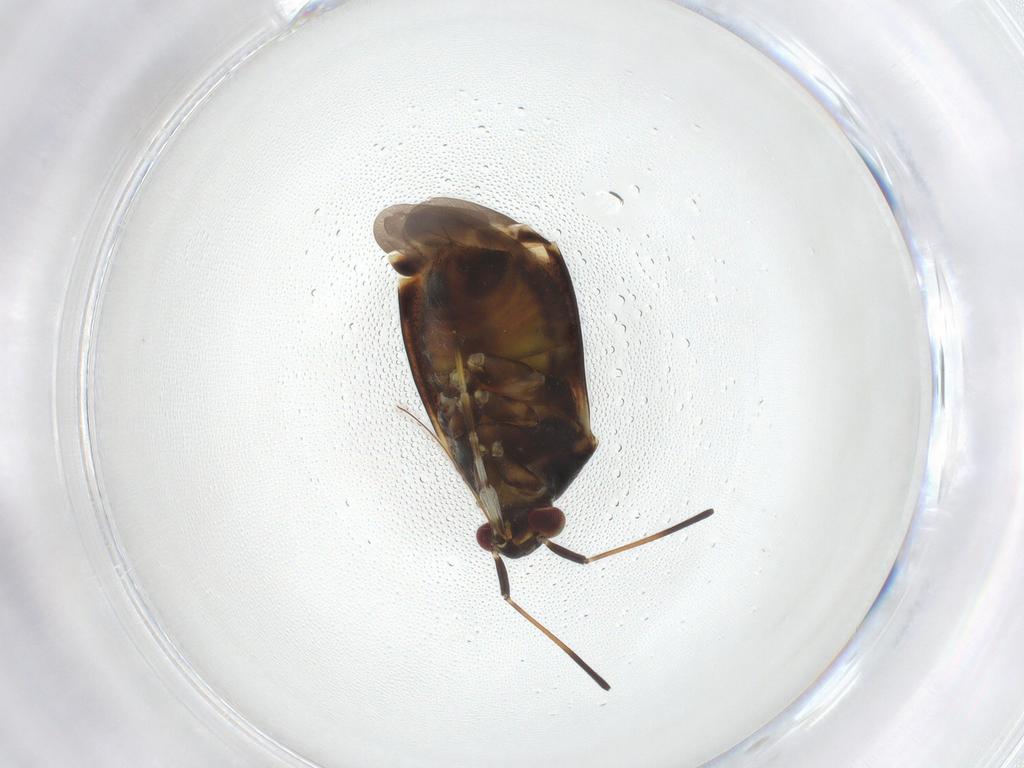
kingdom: Animalia
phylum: Arthropoda
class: Insecta
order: Hemiptera
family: Miridae
